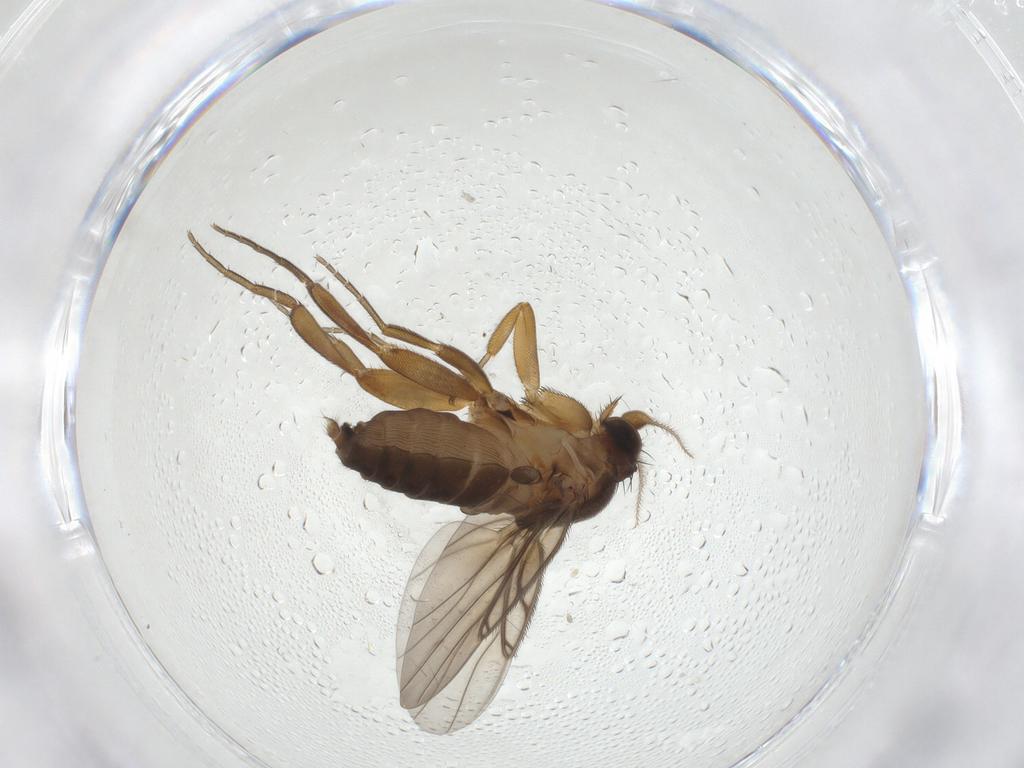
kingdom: Animalia
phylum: Arthropoda
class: Insecta
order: Diptera
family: Phoridae
